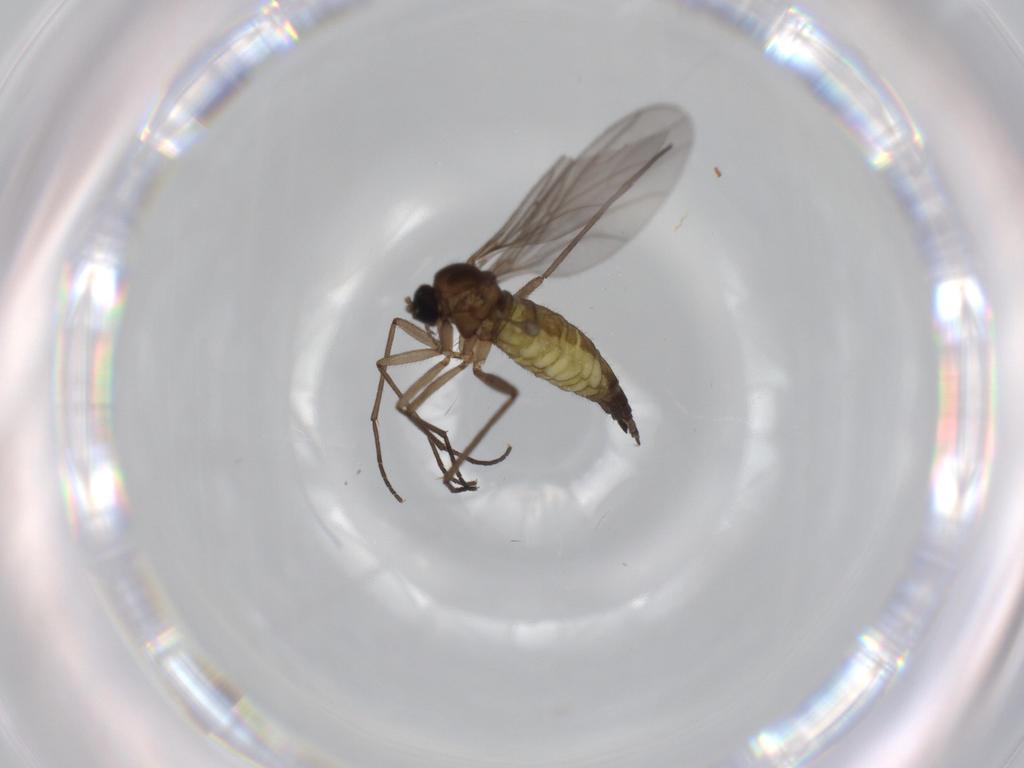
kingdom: Animalia
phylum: Arthropoda
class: Insecta
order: Diptera
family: Sciaridae
